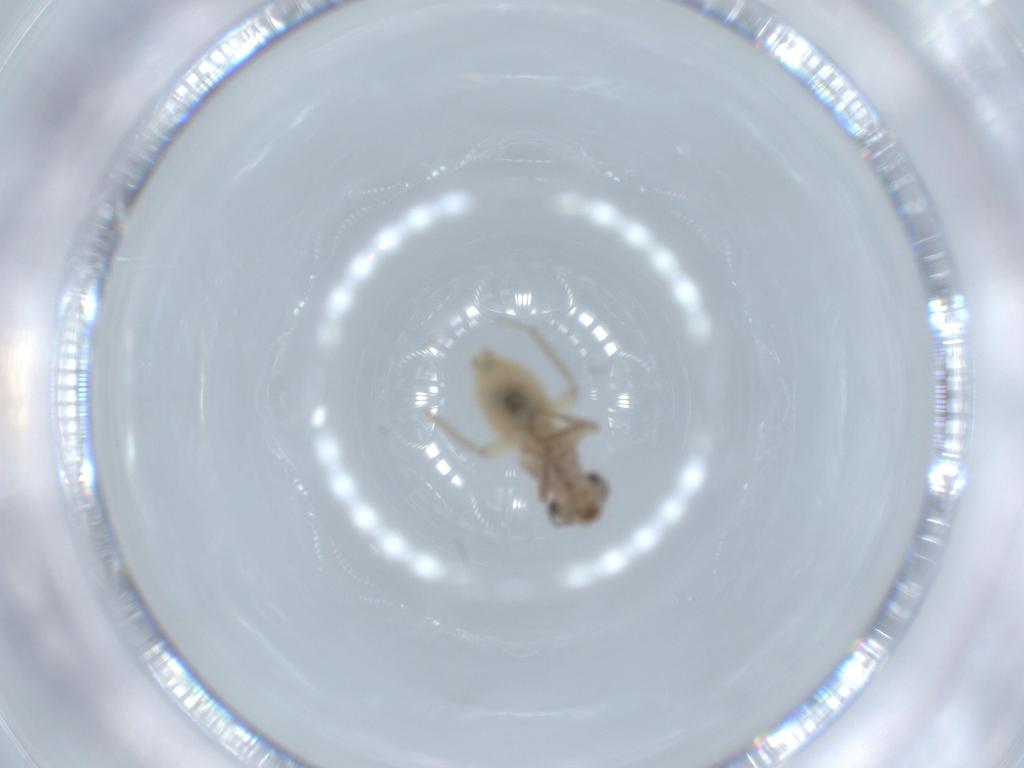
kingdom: Animalia
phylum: Arthropoda
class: Insecta
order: Psocodea
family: Lepidopsocidae
